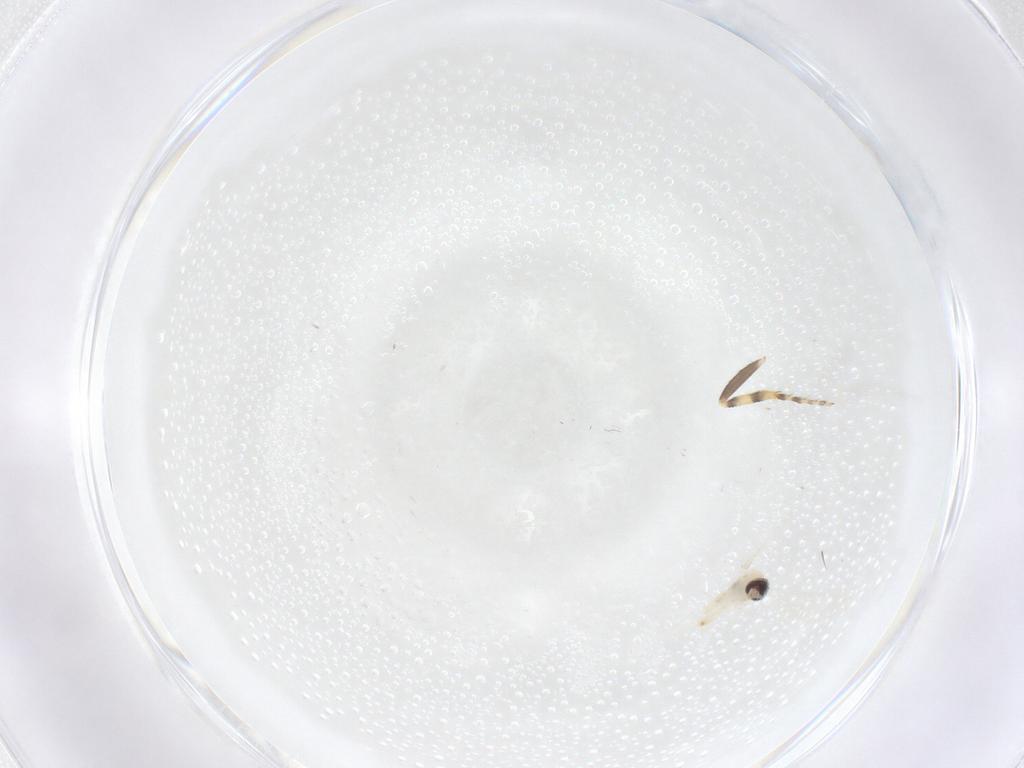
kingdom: Animalia
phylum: Arthropoda
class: Insecta
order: Diptera
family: Cecidomyiidae
